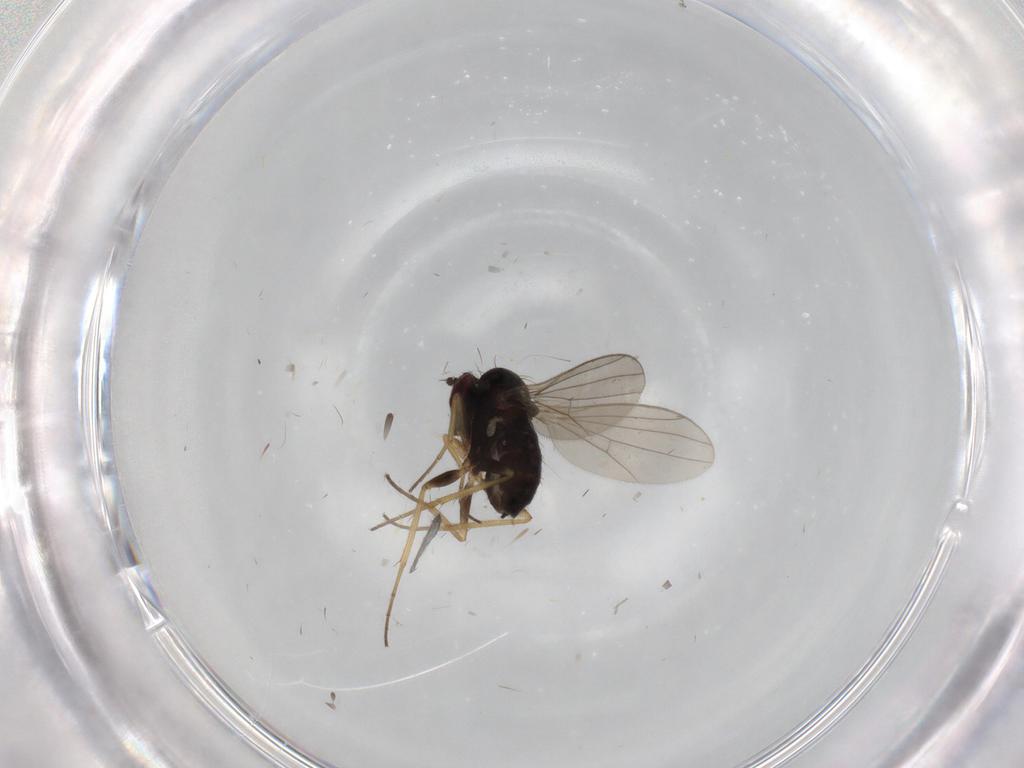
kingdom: Animalia
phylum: Arthropoda
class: Insecta
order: Diptera
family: Dolichopodidae
